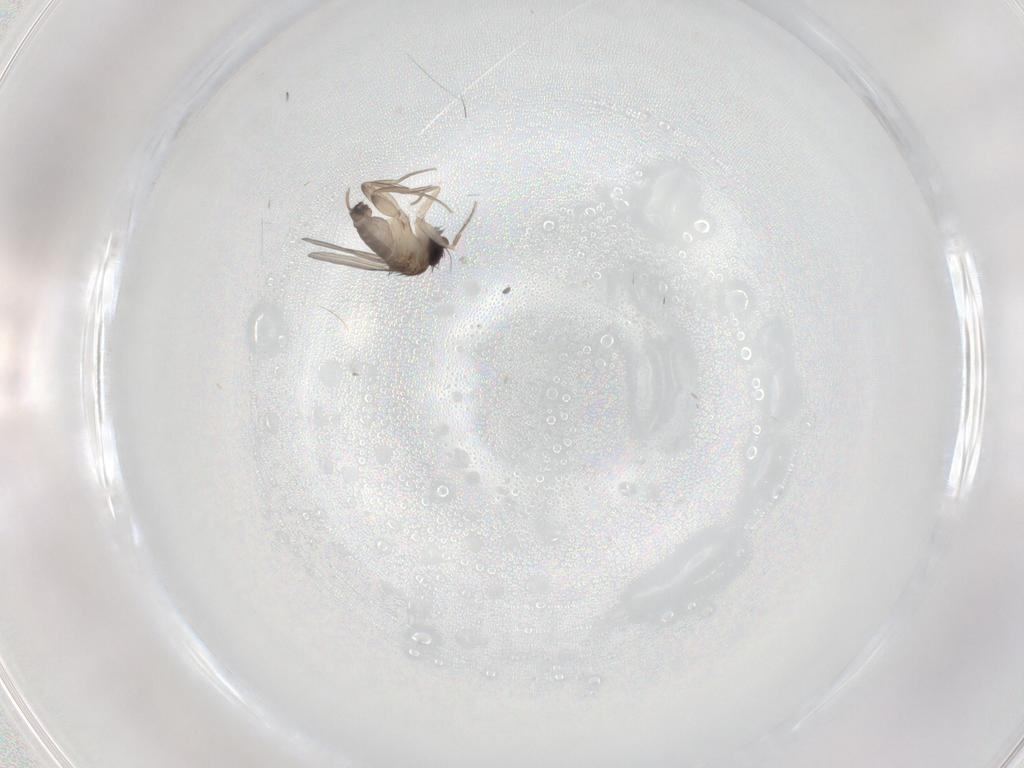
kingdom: Animalia
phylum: Arthropoda
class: Insecta
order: Diptera
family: Phoridae
